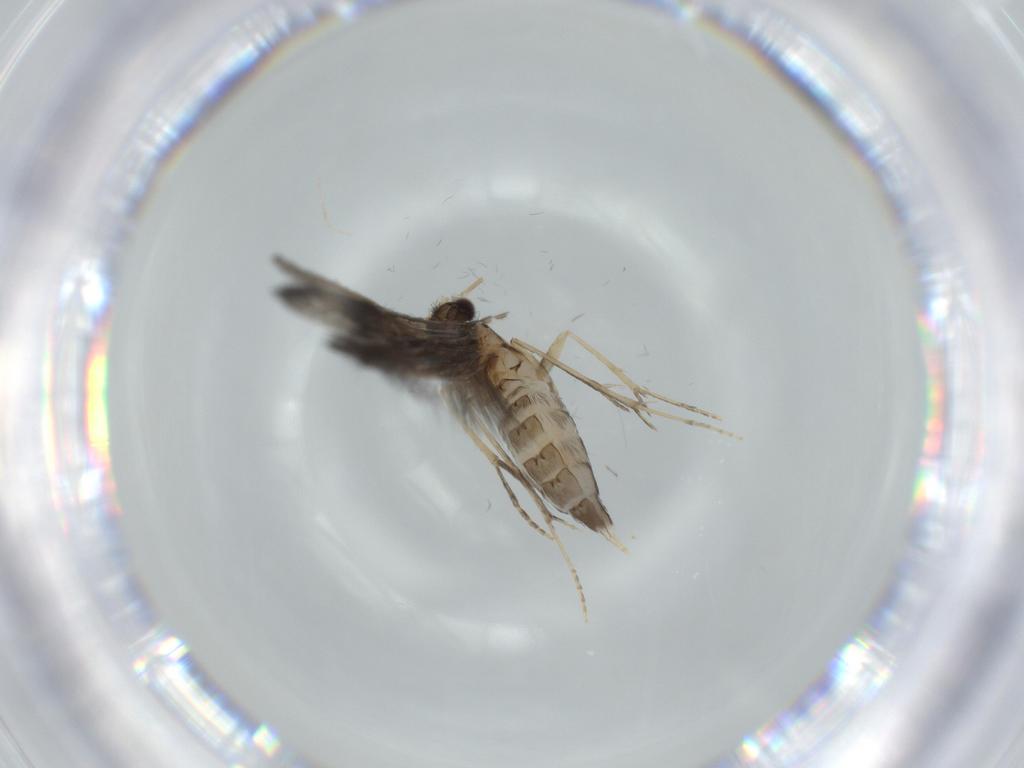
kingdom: Animalia
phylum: Arthropoda
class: Insecta
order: Trichoptera
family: Hydroptilidae
